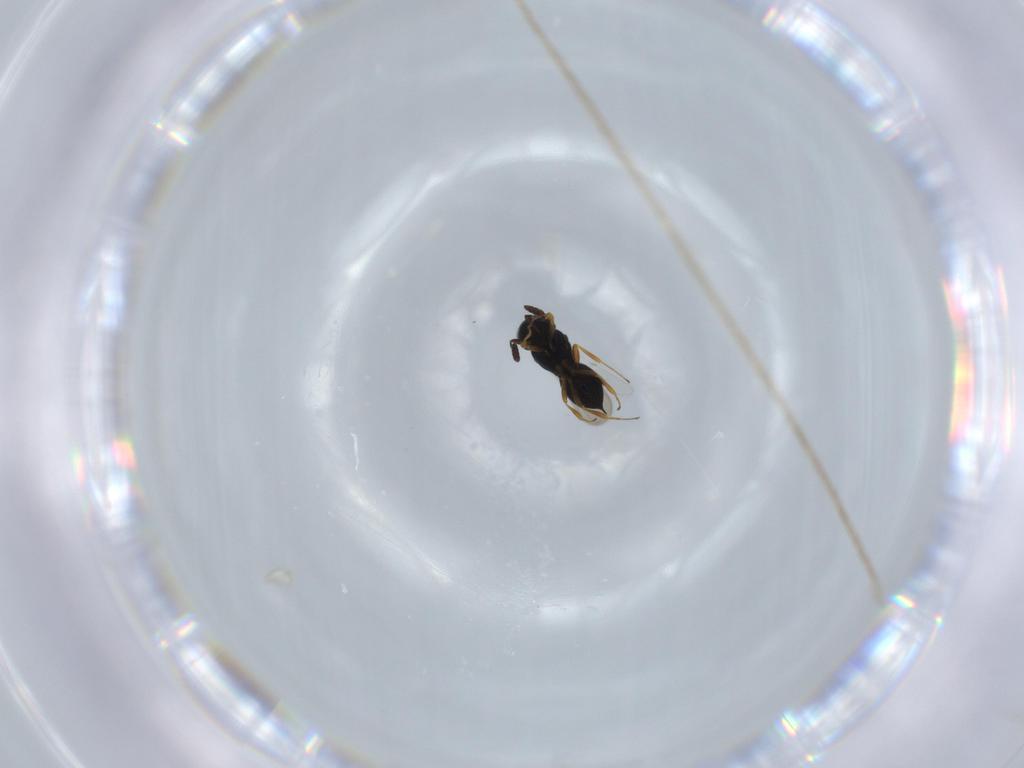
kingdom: Animalia
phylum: Arthropoda
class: Insecta
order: Hymenoptera
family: Scelionidae
